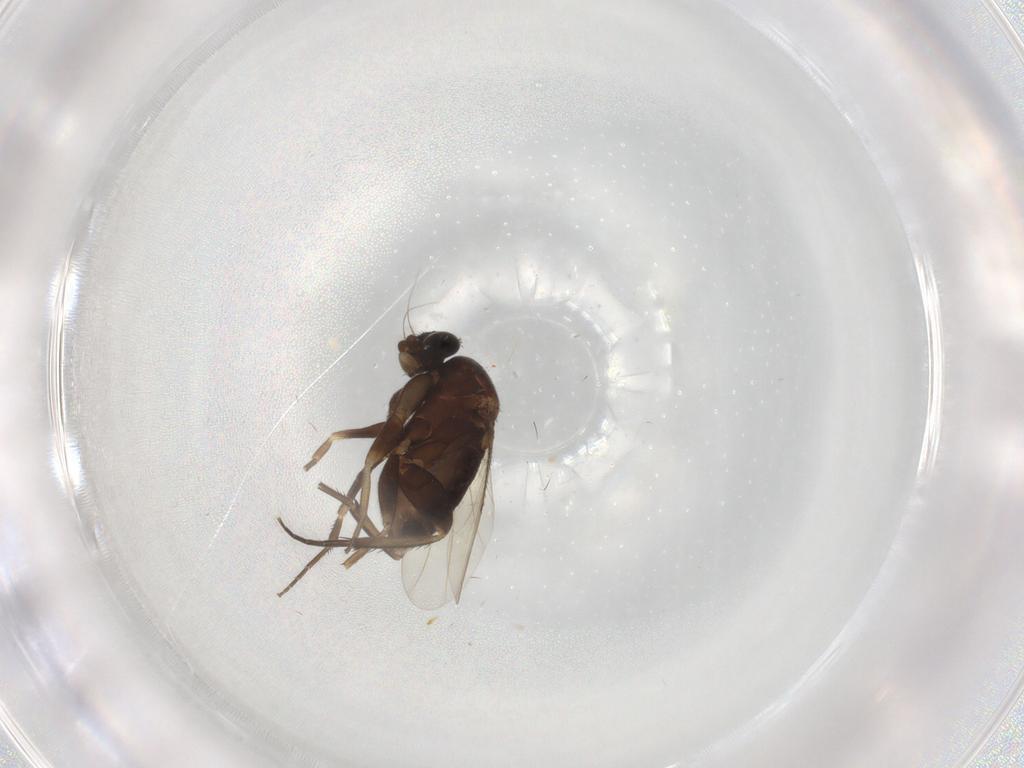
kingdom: Animalia
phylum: Arthropoda
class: Insecta
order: Diptera
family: Phoridae
